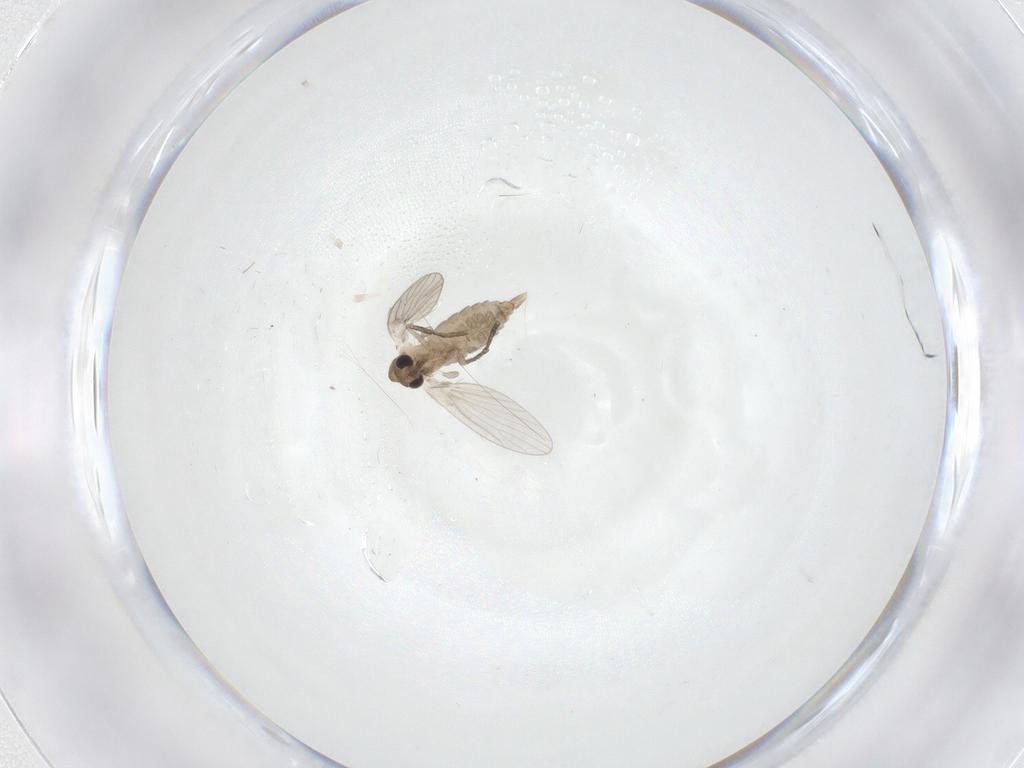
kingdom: Animalia
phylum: Arthropoda
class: Insecta
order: Diptera
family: Psychodidae
